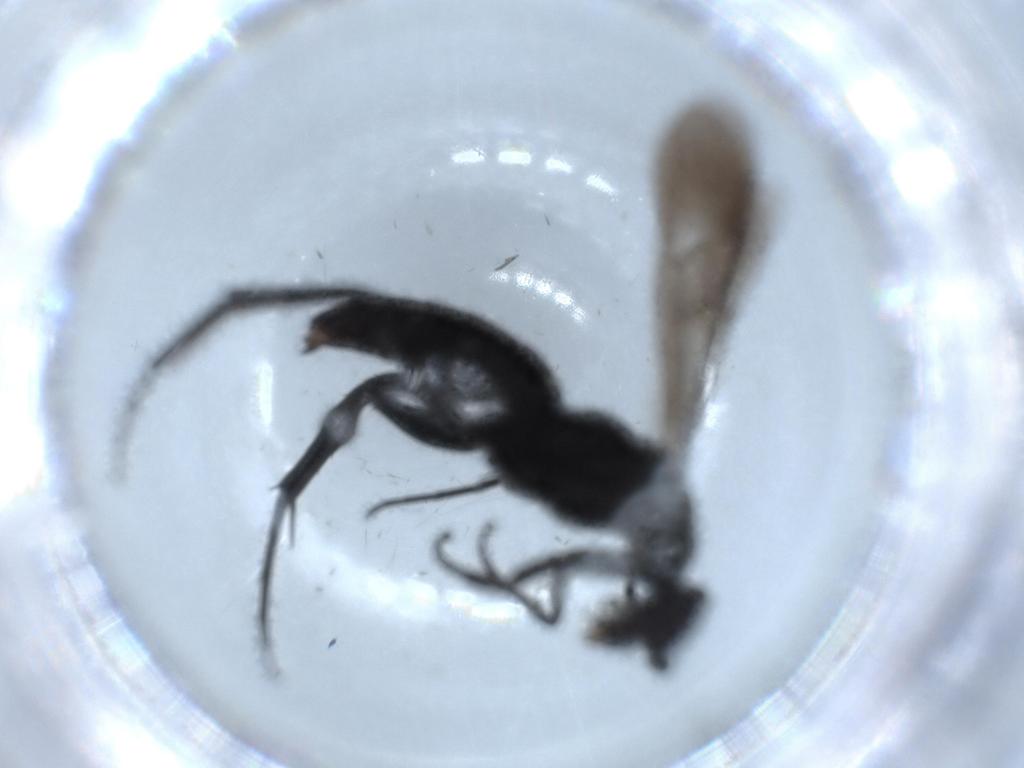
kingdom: Animalia
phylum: Arthropoda
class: Insecta
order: Hymenoptera
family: Pompilidae
